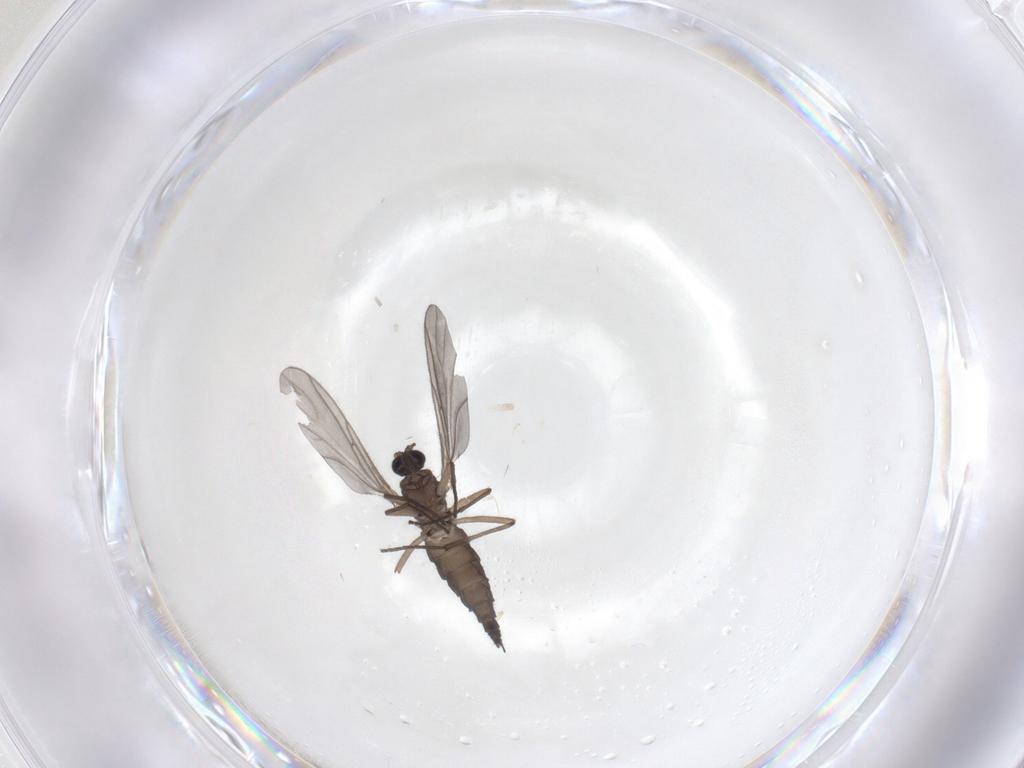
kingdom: Animalia
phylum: Arthropoda
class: Insecta
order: Diptera
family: Sciaridae
